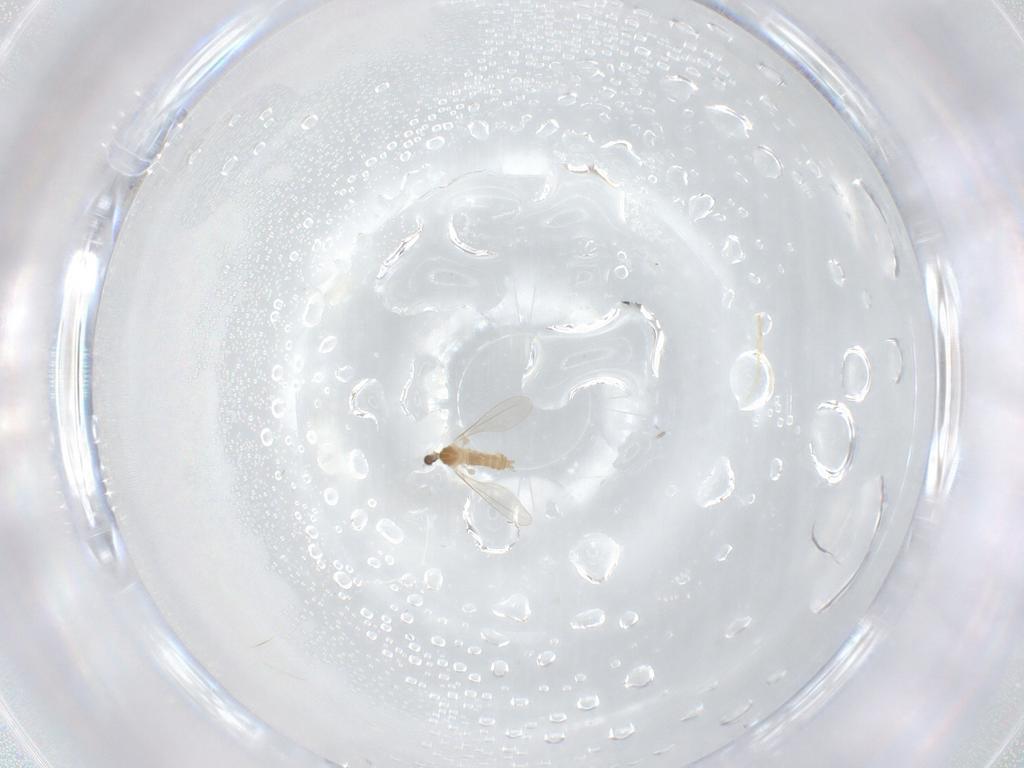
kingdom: Animalia
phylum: Arthropoda
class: Insecta
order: Diptera
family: Cecidomyiidae
